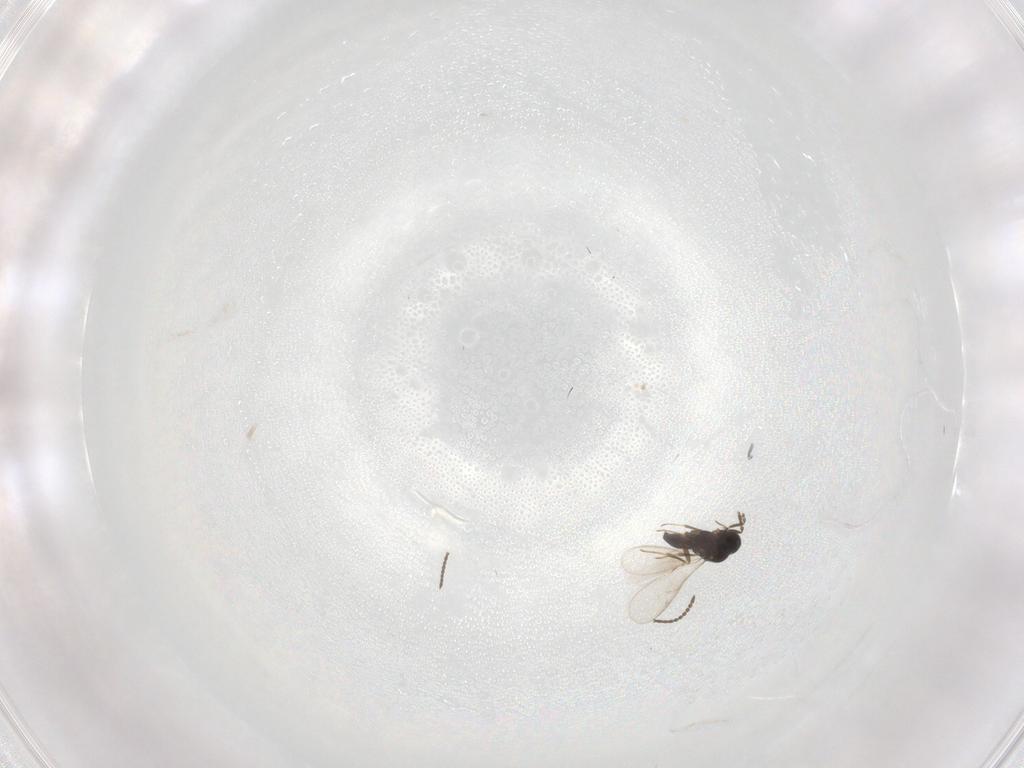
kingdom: Animalia
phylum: Arthropoda
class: Insecta
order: Hymenoptera
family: Scelionidae
